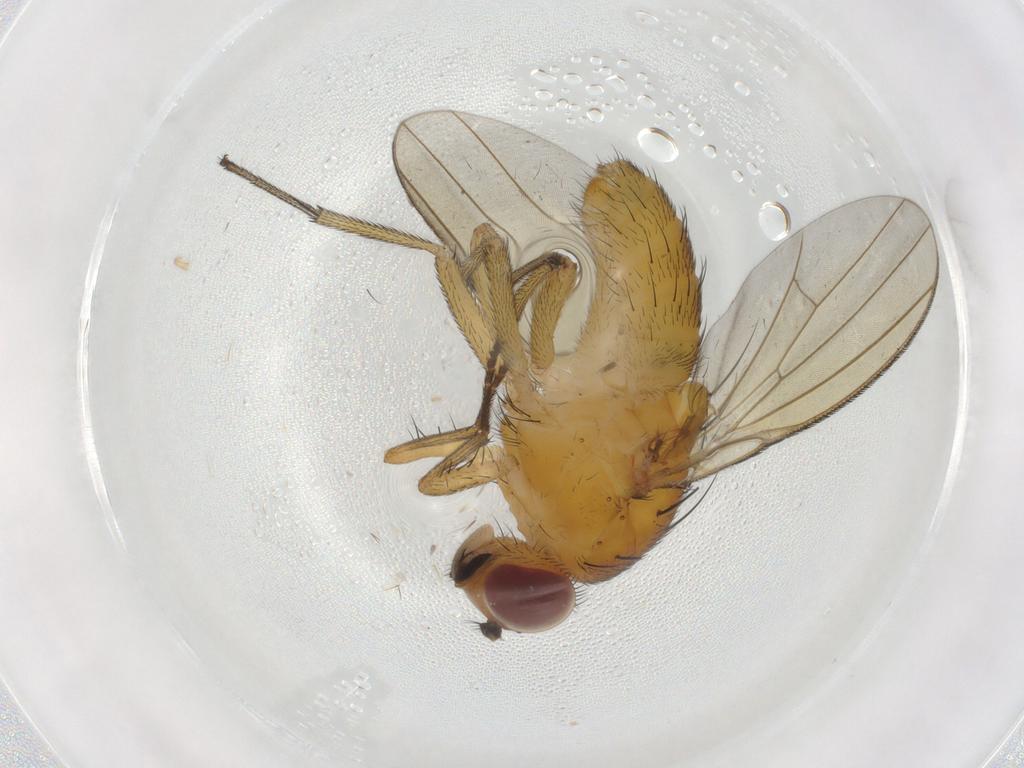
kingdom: Animalia
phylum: Arthropoda
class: Insecta
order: Diptera
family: Lauxaniidae
